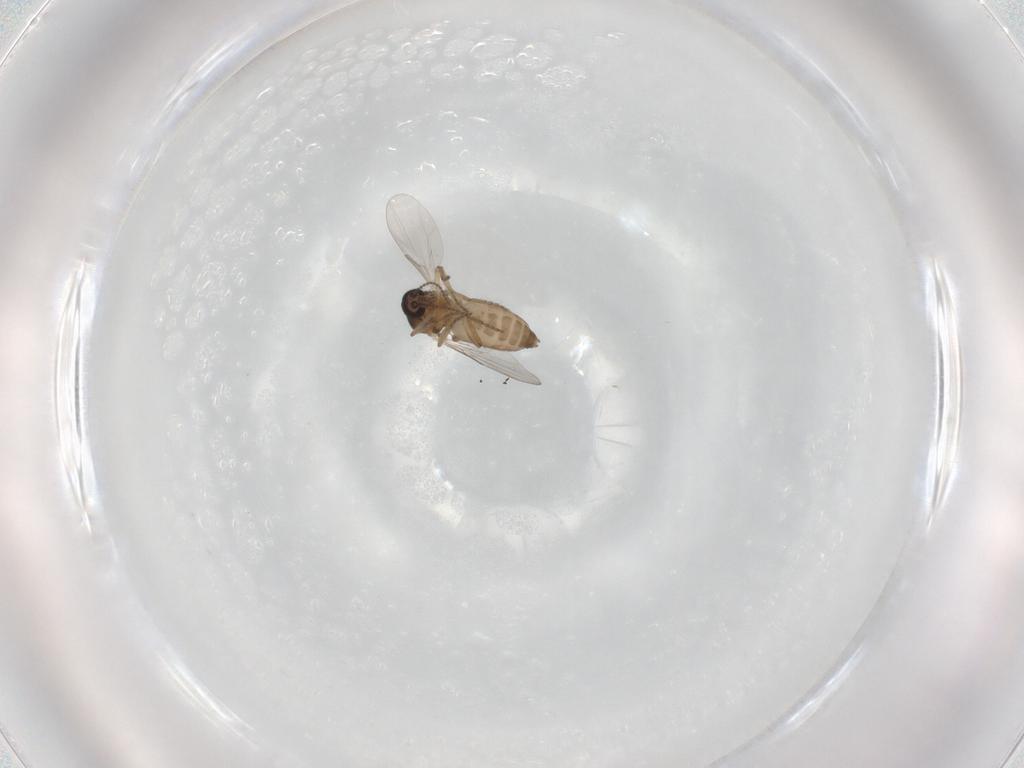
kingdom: Animalia
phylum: Arthropoda
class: Insecta
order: Diptera
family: Ceratopogonidae
